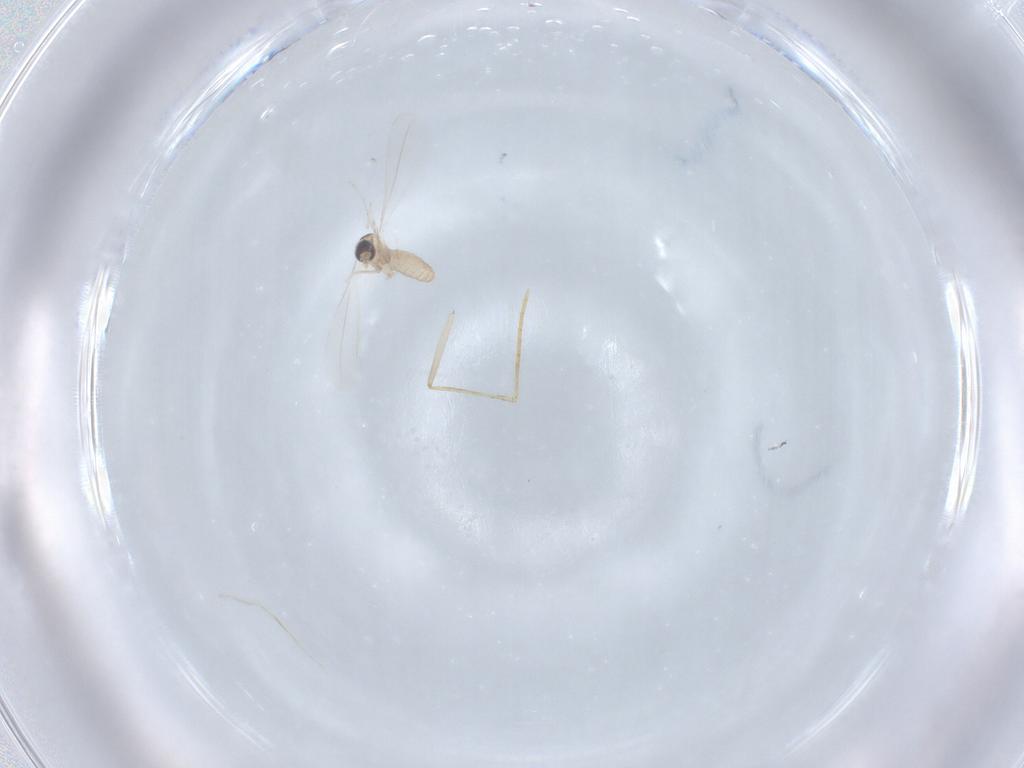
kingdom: Animalia
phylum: Arthropoda
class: Insecta
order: Diptera
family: Cecidomyiidae
